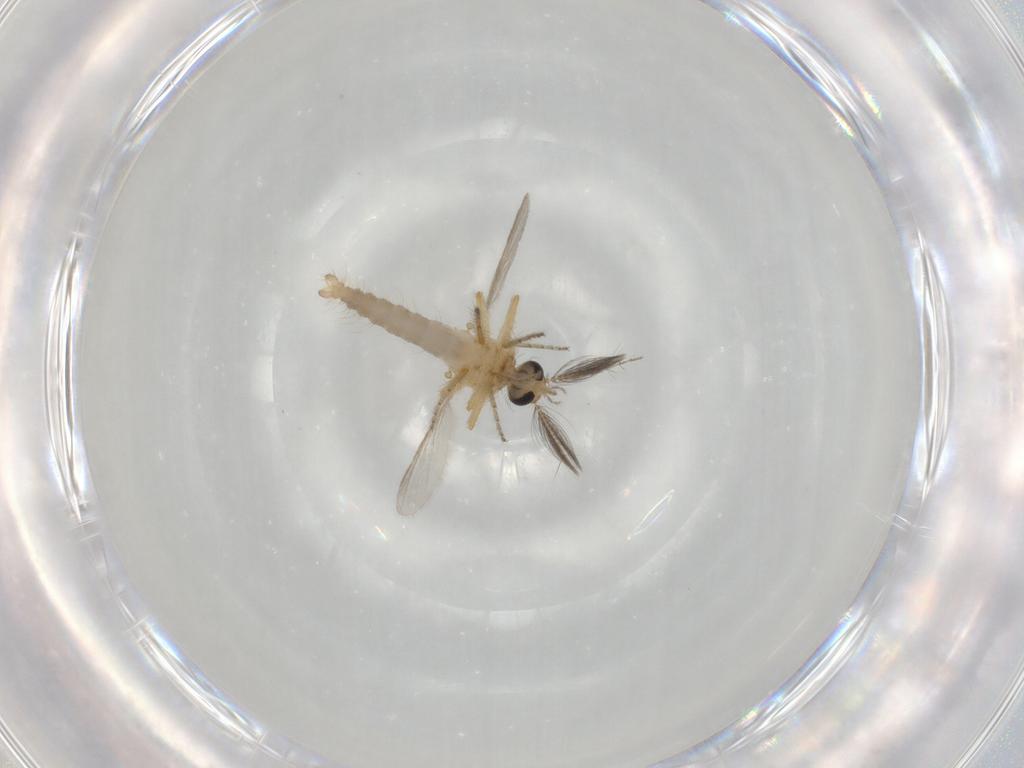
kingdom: Animalia
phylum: Arthropoda
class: Insecta
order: Diptera
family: Ceratopogonidae
